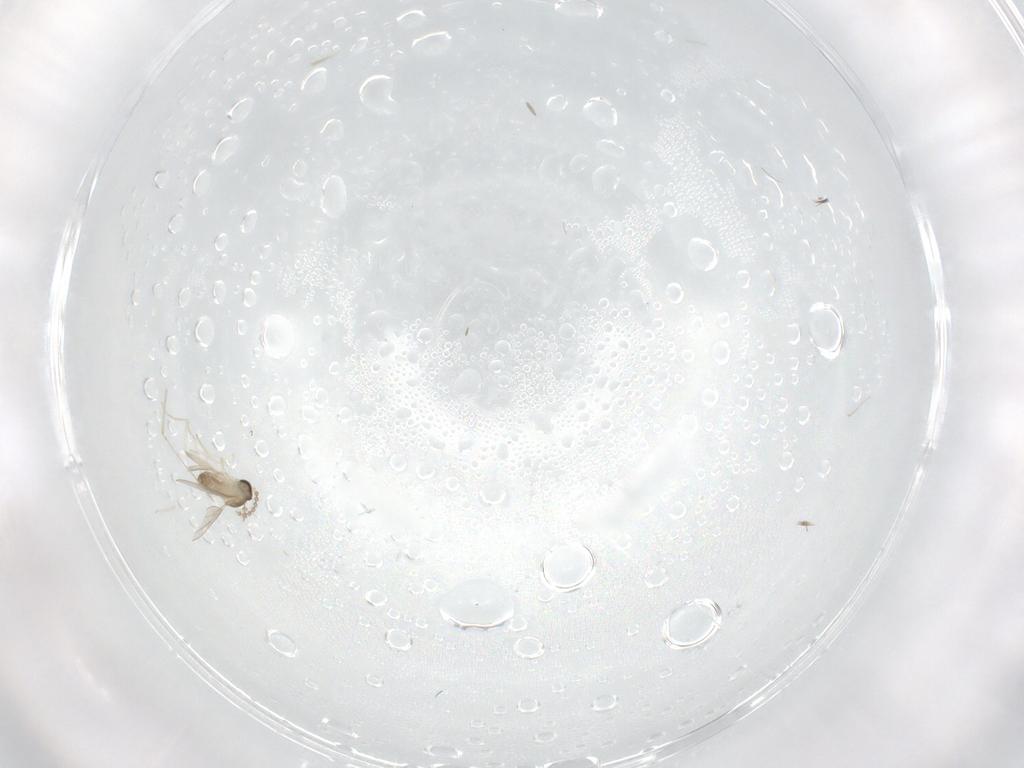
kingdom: Animalia
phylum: Arthropoda
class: Insecta
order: Diptera
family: Cecidomyiidae
